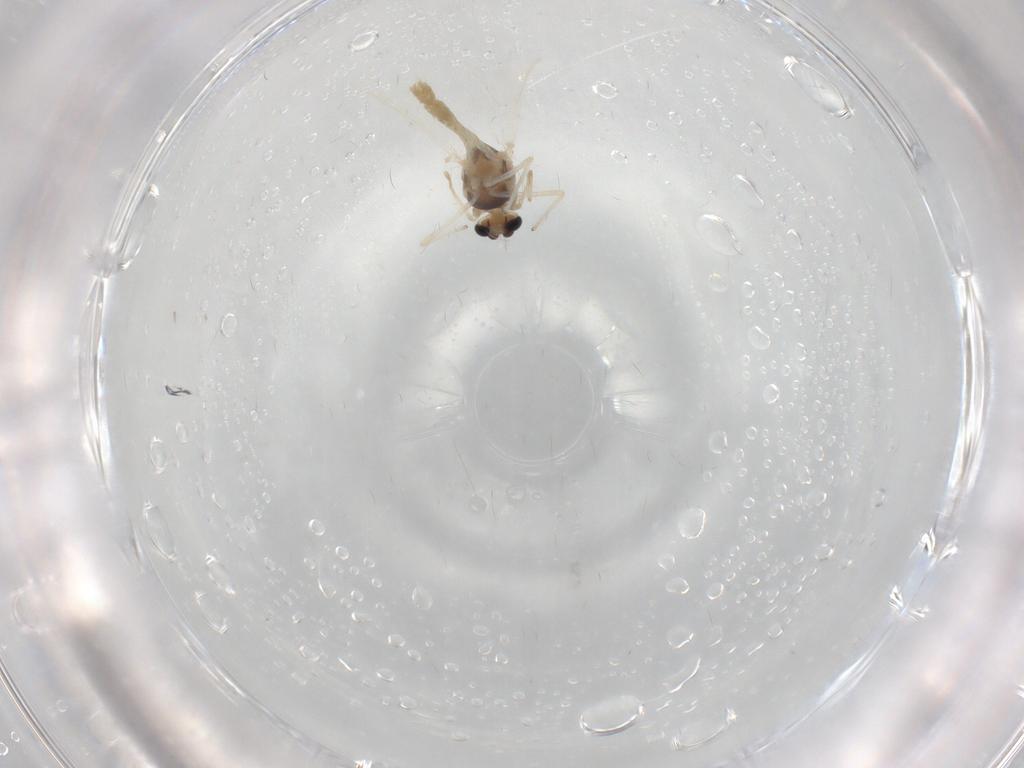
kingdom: Animalia
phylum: Arthropoda
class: Insecta
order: Diptera
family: Chironomidae
